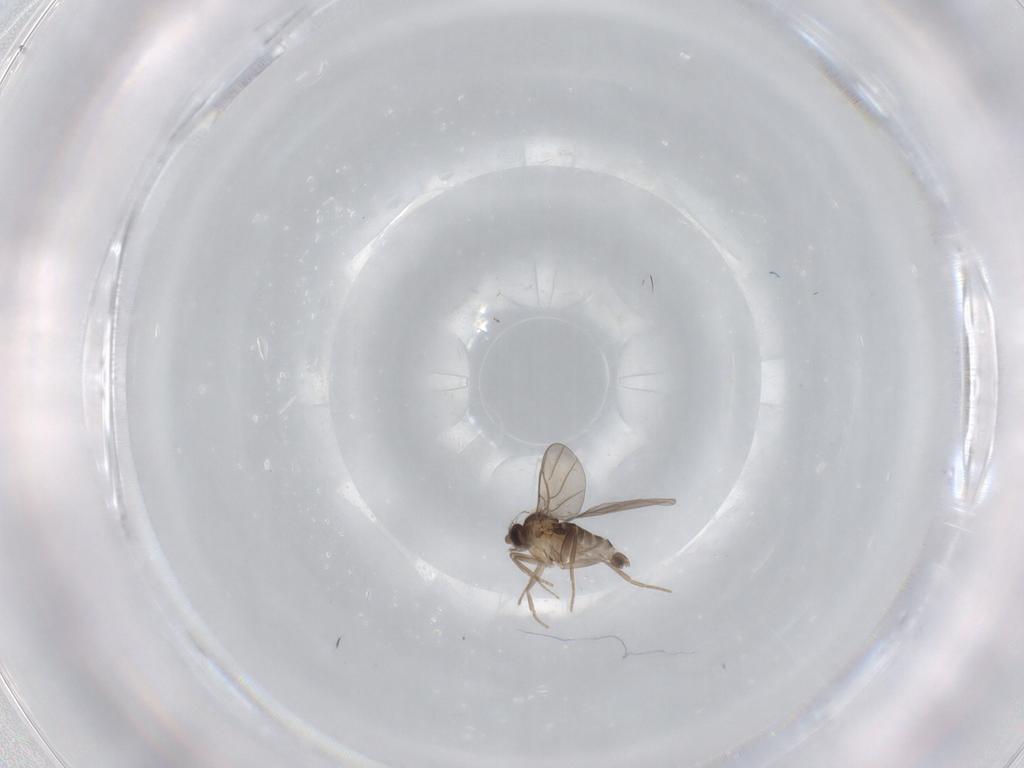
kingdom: Animalia
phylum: Arthropoda
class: Insecta
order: Diptera
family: Phoridae
